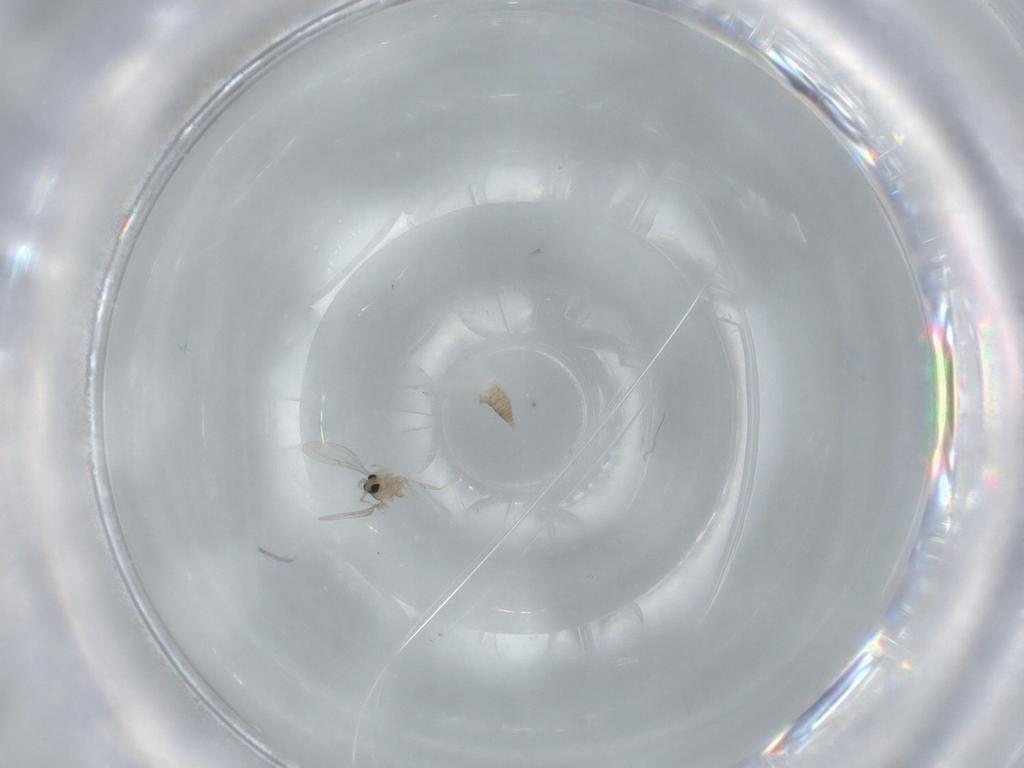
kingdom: Animalia
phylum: Arthropoda
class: Insecta
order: Diptera
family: Cecidomyiidae
